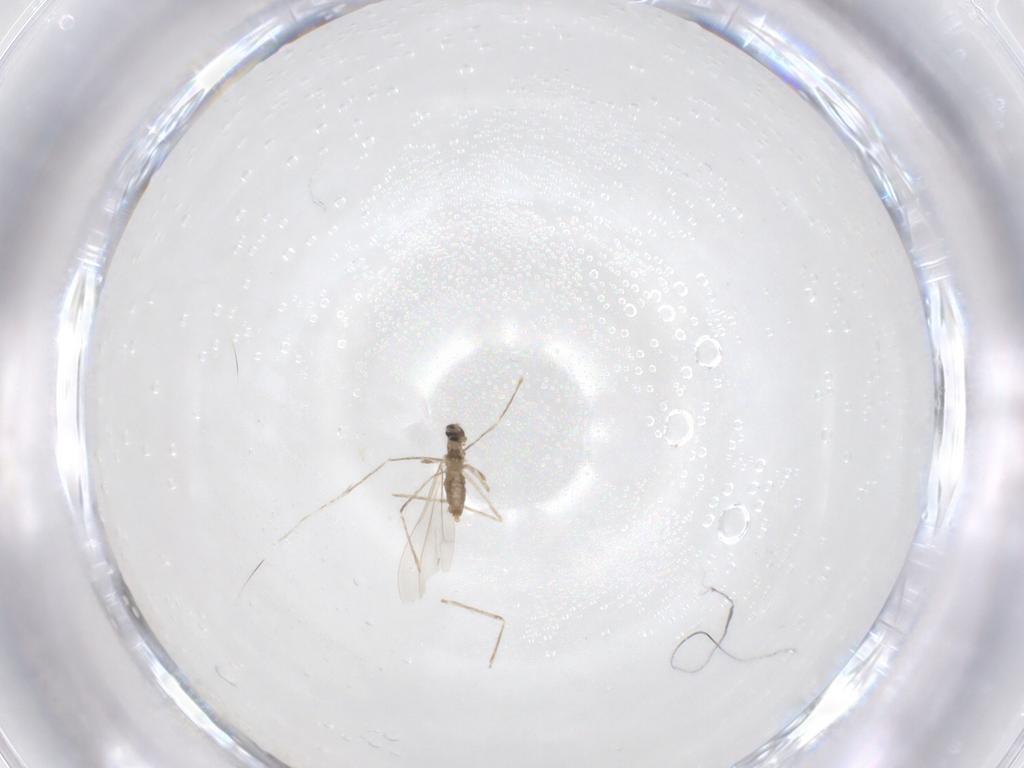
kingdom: Animalia
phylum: Arthropoda
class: Insecta
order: Diptera
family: Cecidomyiidae
